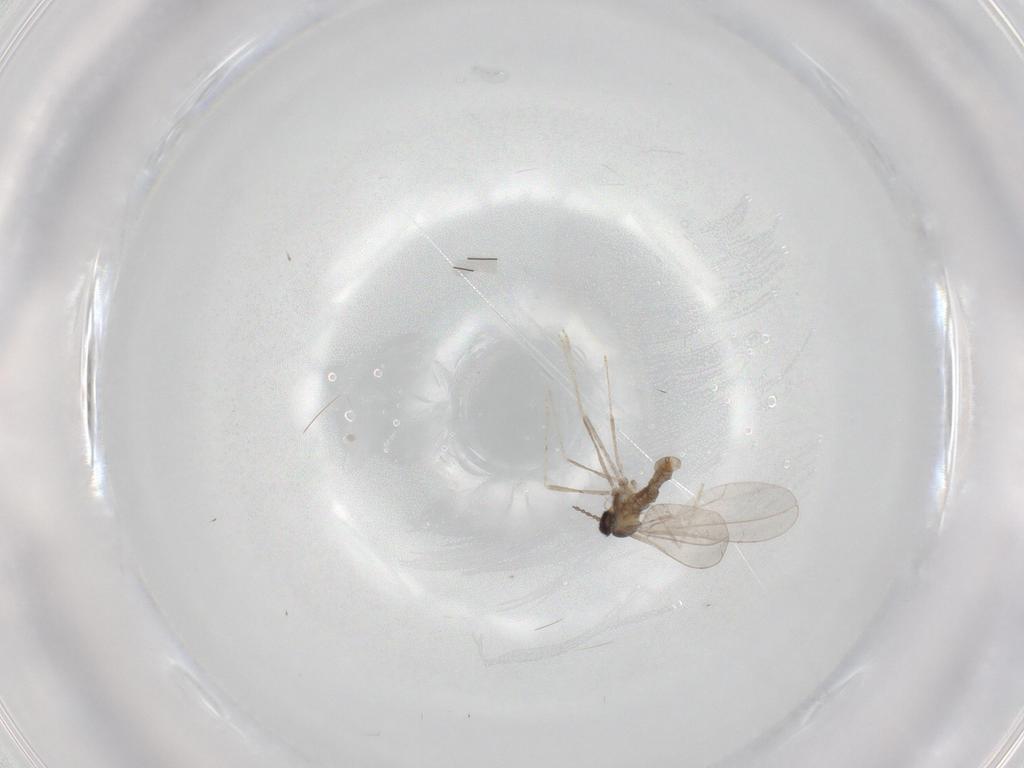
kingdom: Animalia
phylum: Arthropoda
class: Insecta
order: Diptera
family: Cecidomyiidae
